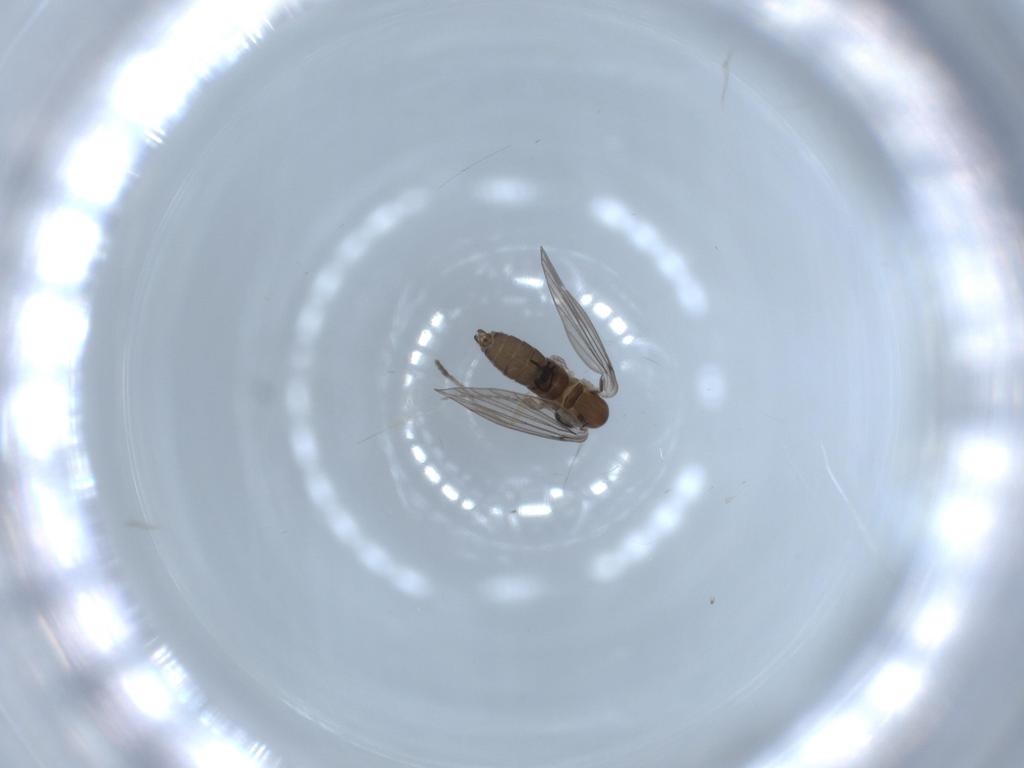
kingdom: Animalia
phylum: Arthropoda
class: Insecta
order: Diptera
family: Psychodidae
